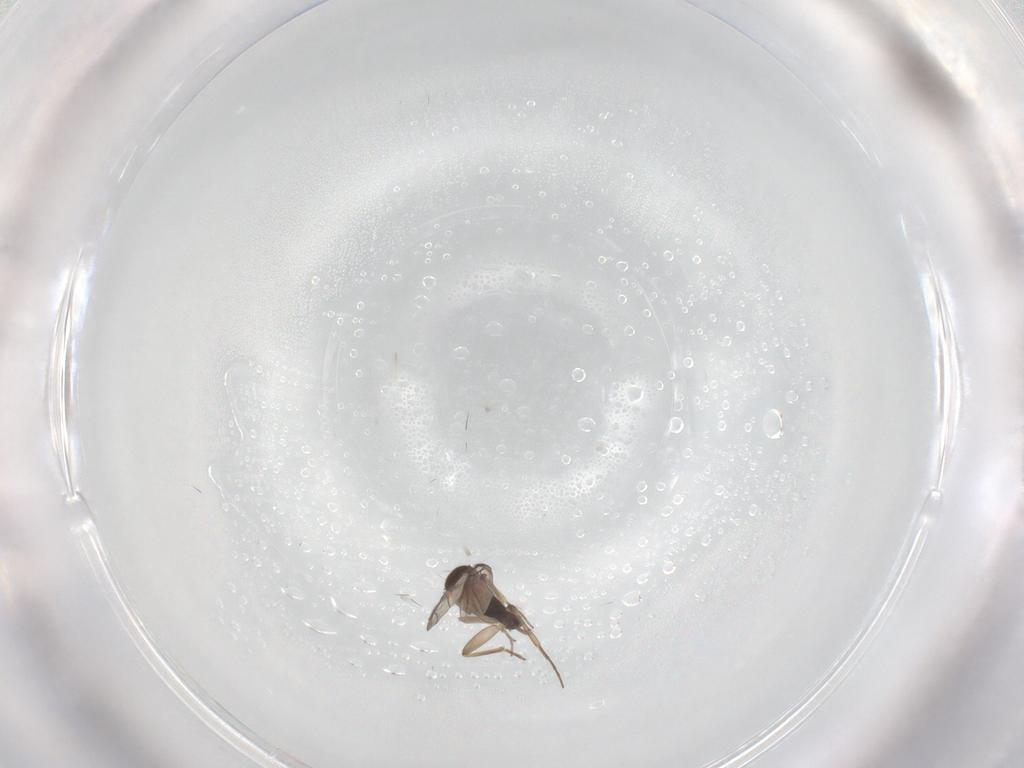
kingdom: Animalia
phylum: Arthropoda
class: Insecta
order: Diptera
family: Phoridae
